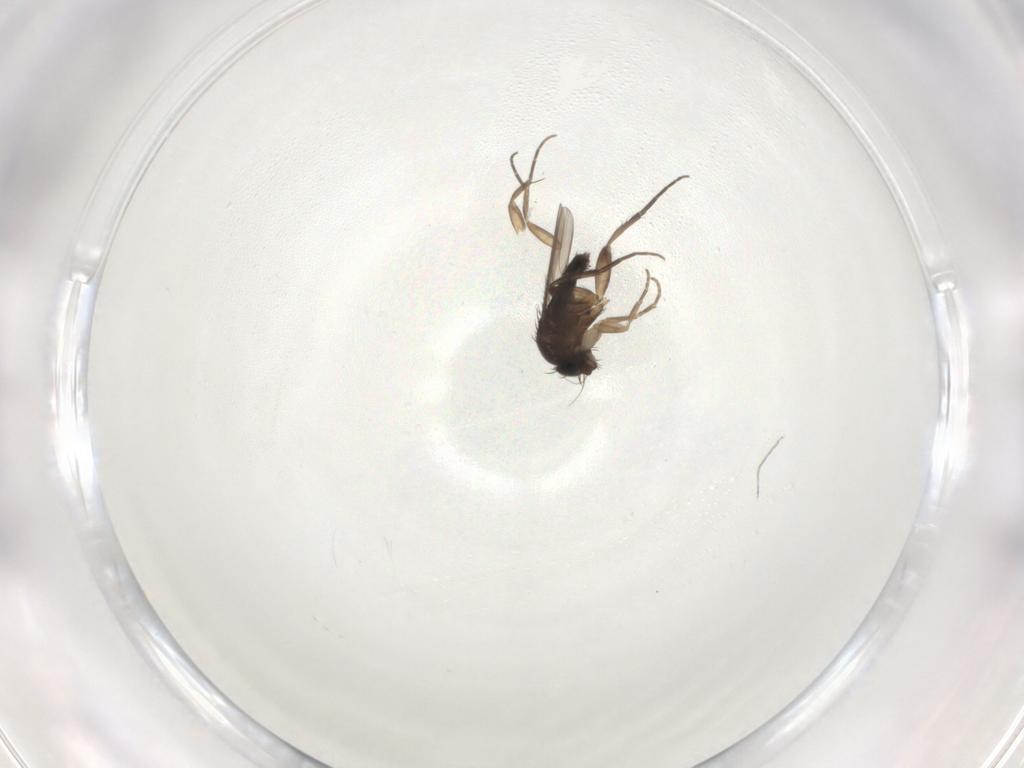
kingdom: Animalia
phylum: Arthropoda
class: Insecta
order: Diptera
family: Phoridae
